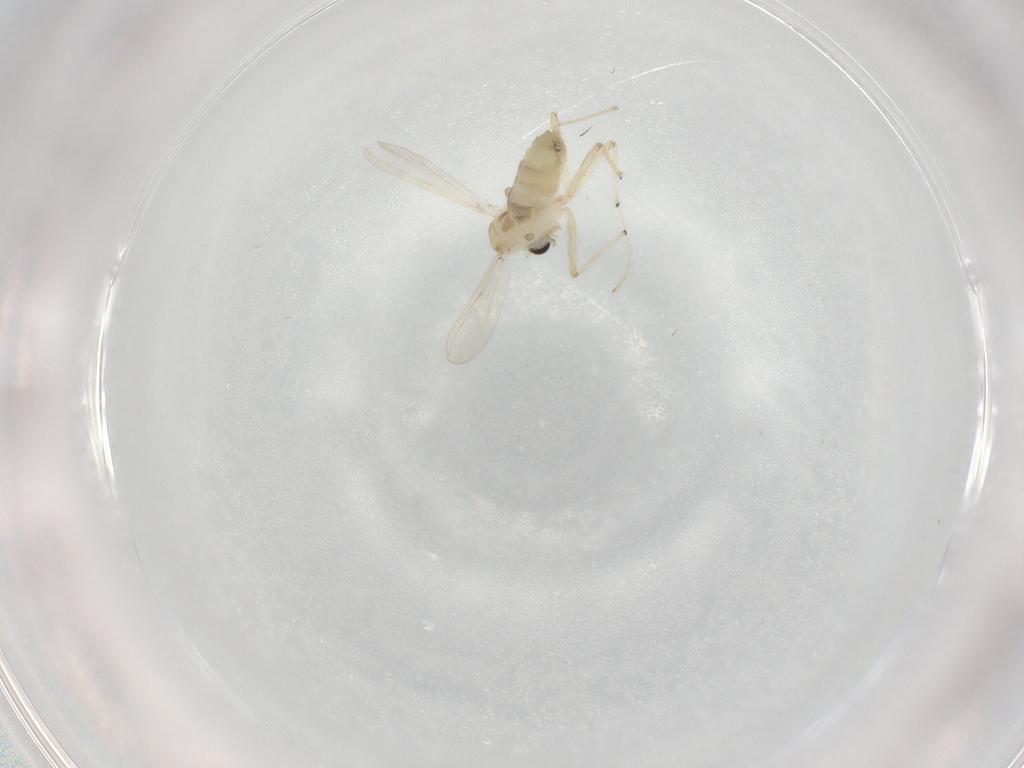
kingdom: Animalia
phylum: Arthropoda
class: Insecta
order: Diptera
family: Chironomidae
